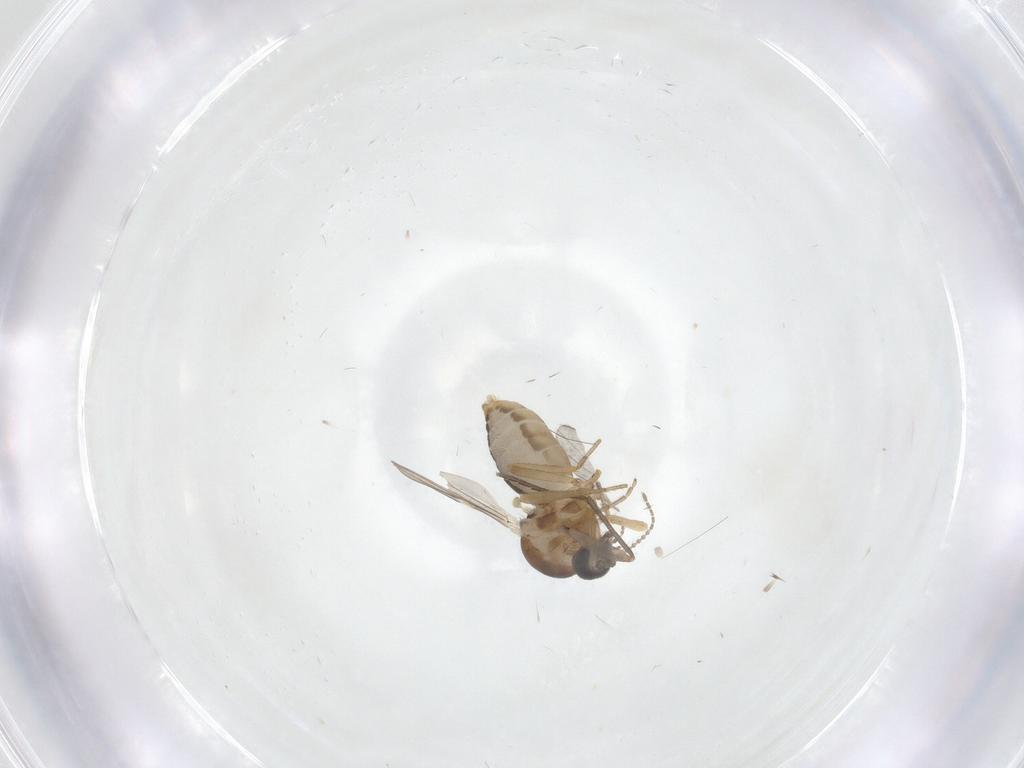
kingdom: Animalia
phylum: Arthropoda
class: Insecta
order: Diptera
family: Ceratopogonidae
